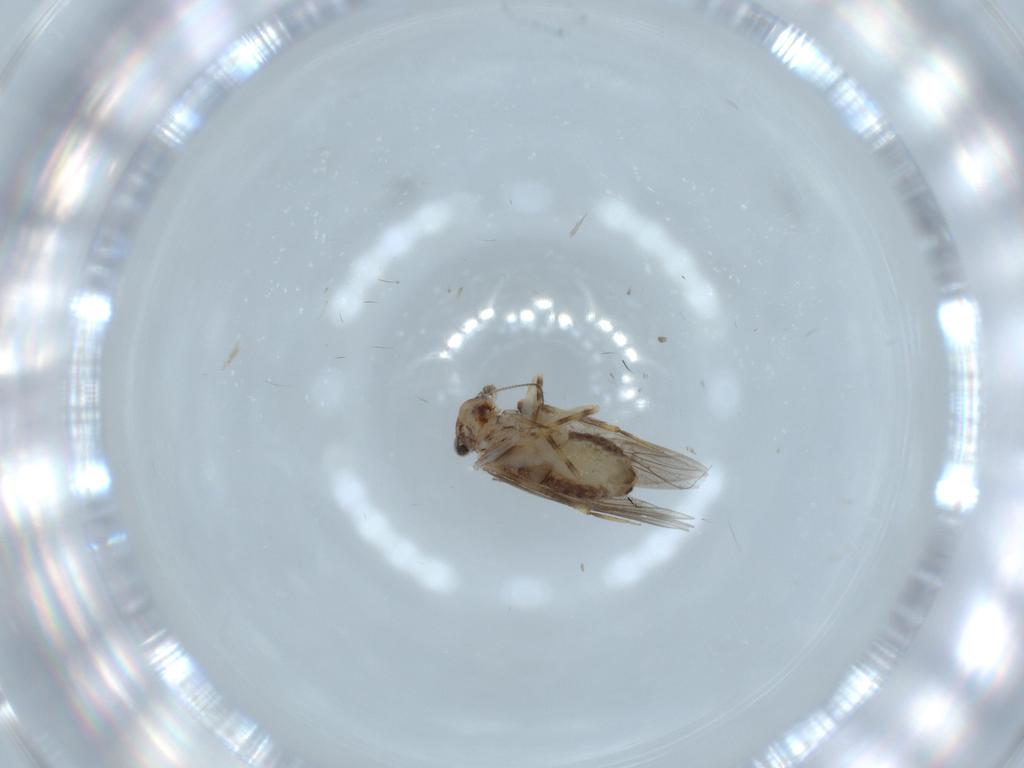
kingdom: Animalia
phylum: Arthropoda
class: Insecta
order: Psocodea
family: Lepidopsocidae
